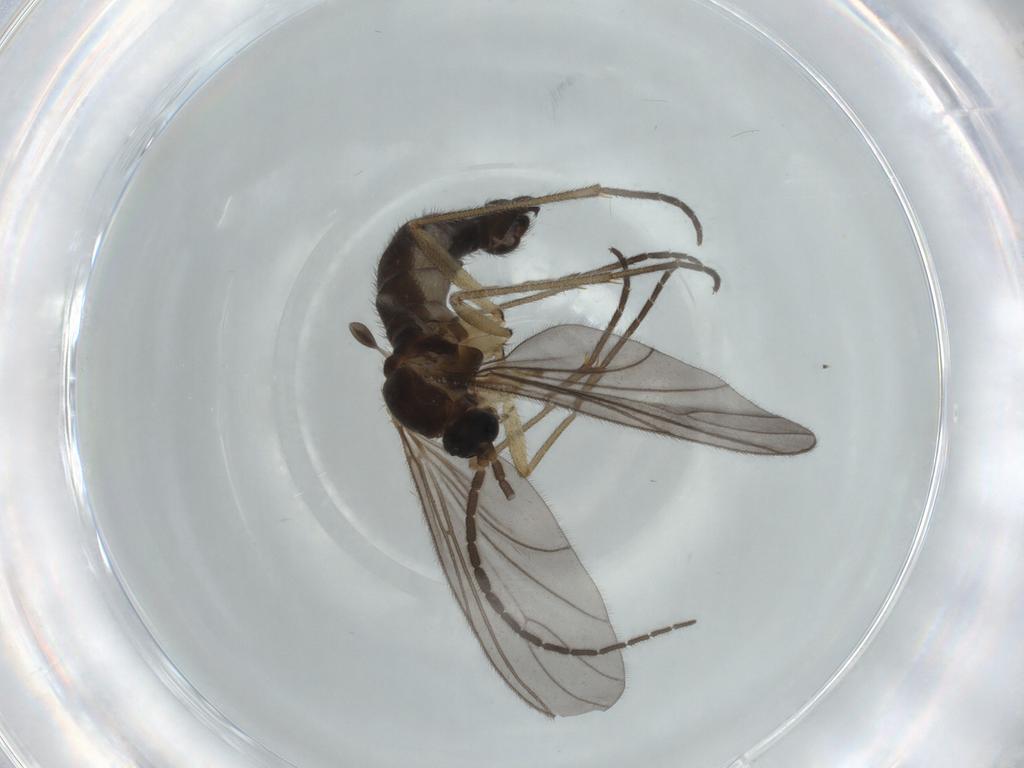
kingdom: Animalia
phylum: Arthropoda
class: Insecta
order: Diptera
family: Sciaridae
